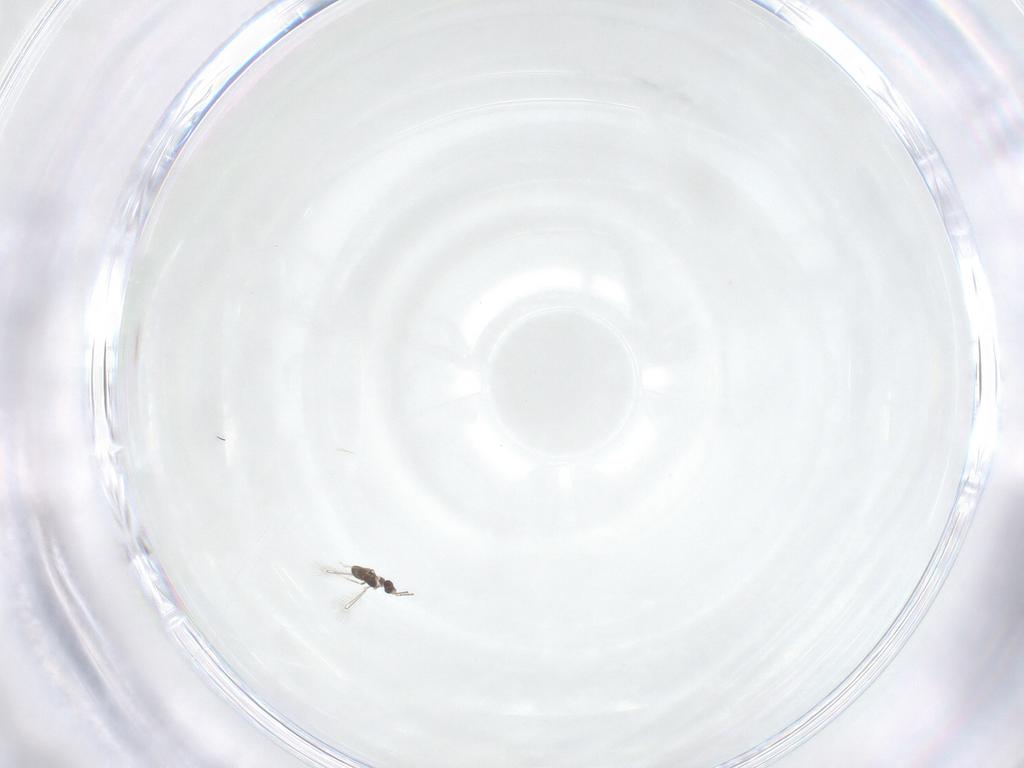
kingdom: Animalia
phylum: Arthropoda
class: Insecta
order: Hymenoptera
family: Mymaridae
